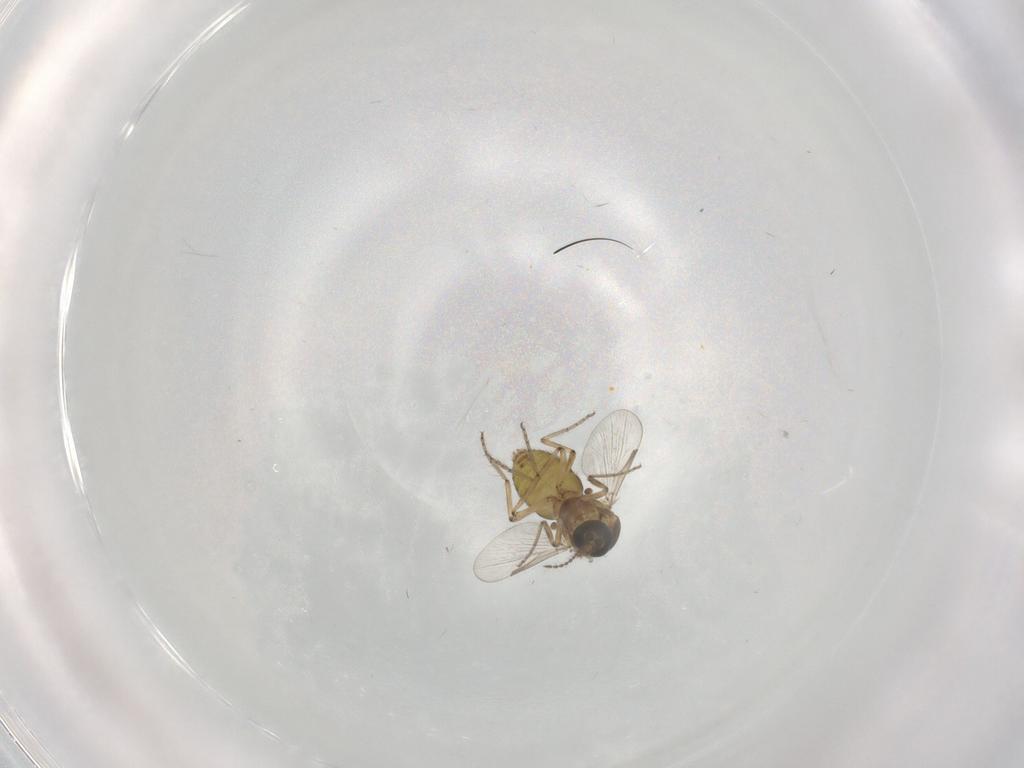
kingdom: Animalia
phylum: Arthropoda
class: Insecta
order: Diptera
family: Ceratopogonidae
